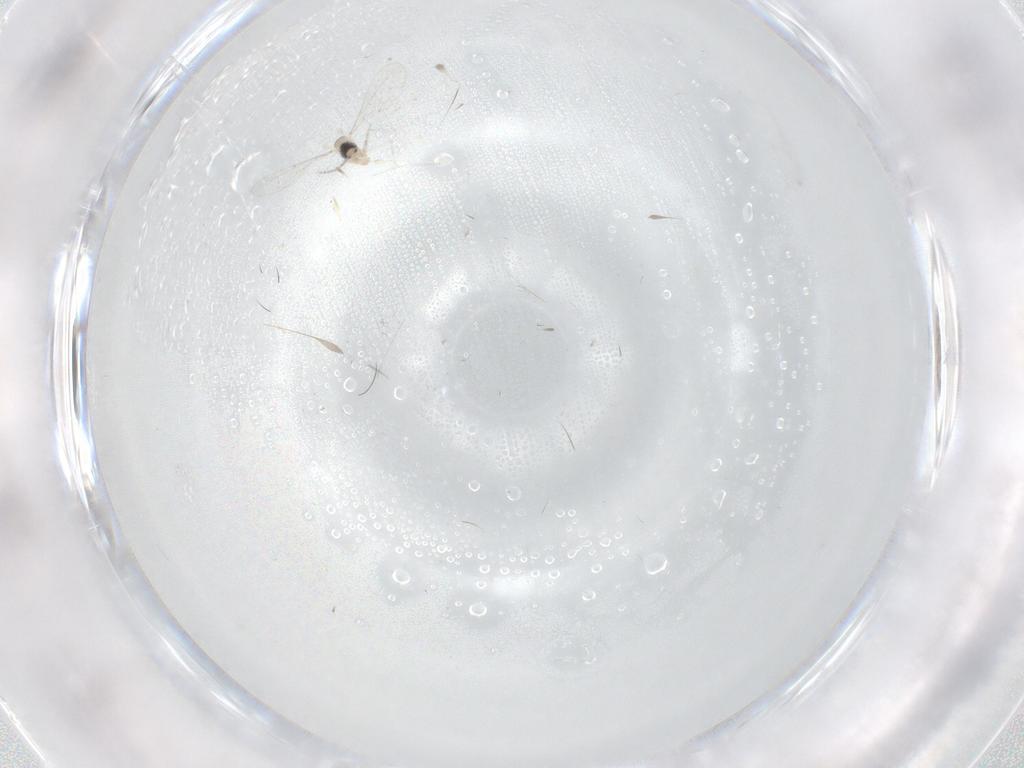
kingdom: Animalia
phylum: Arthropoda
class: Insecta
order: Diptera
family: Cecidomyiidae
